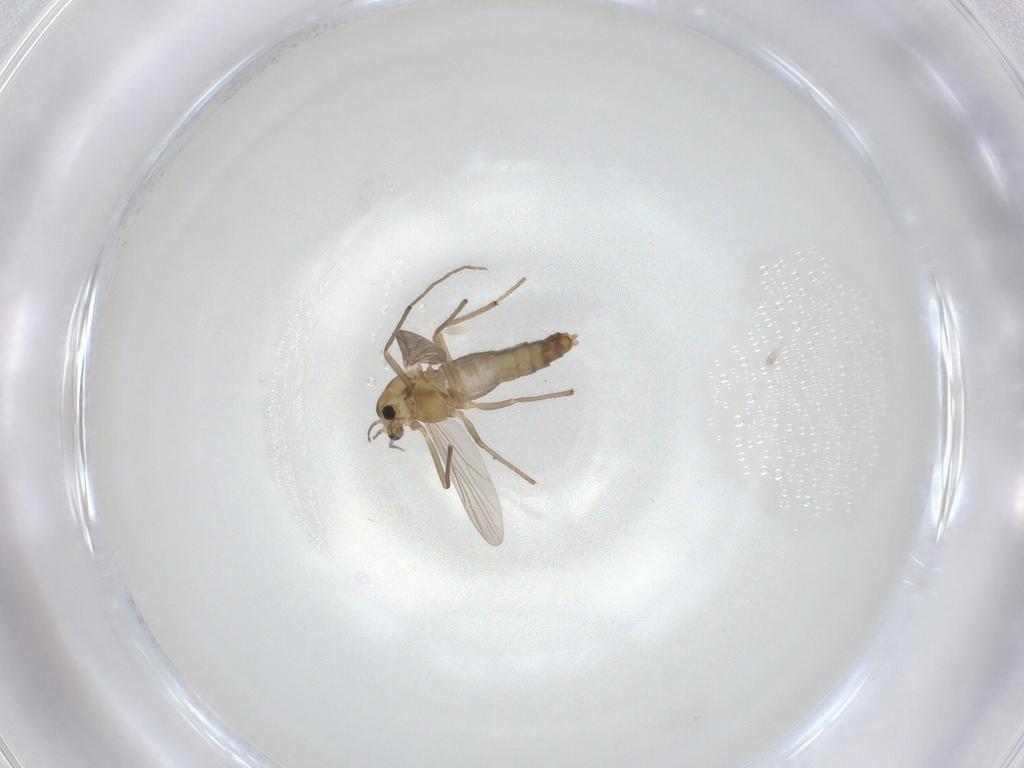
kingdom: Animalia
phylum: Arthropoda
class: Insecta
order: Diptera
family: Chironomidae
